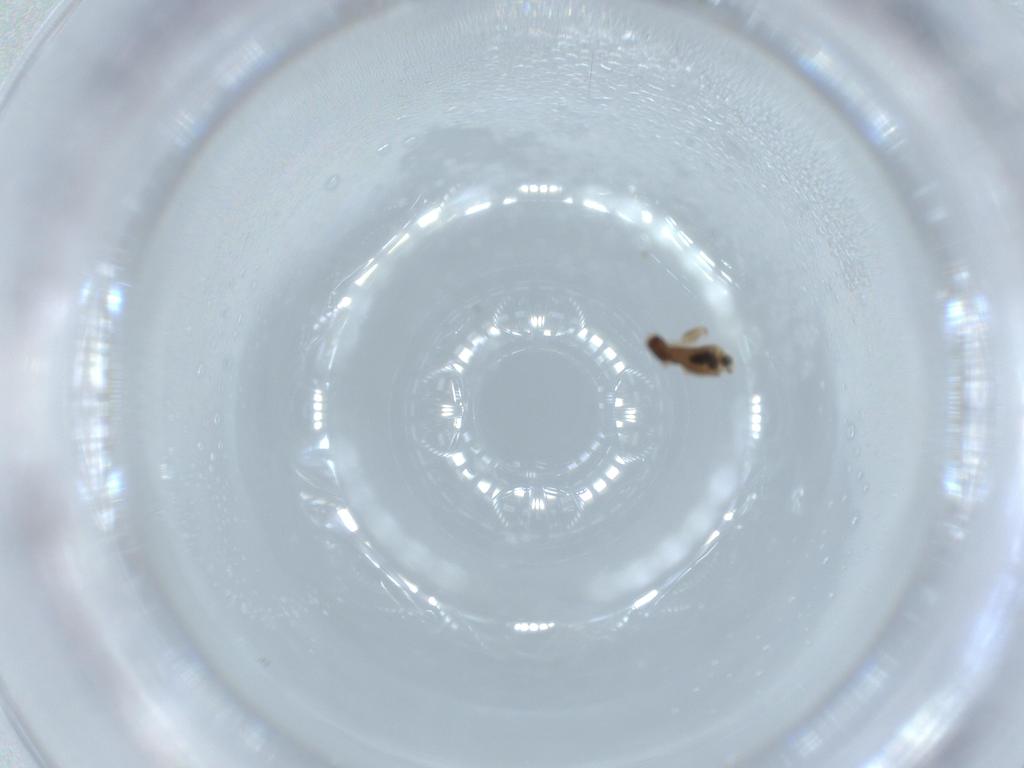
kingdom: Animalia
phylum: Arthropoda
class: Insecta
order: Psocodea
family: Liposcelididae
